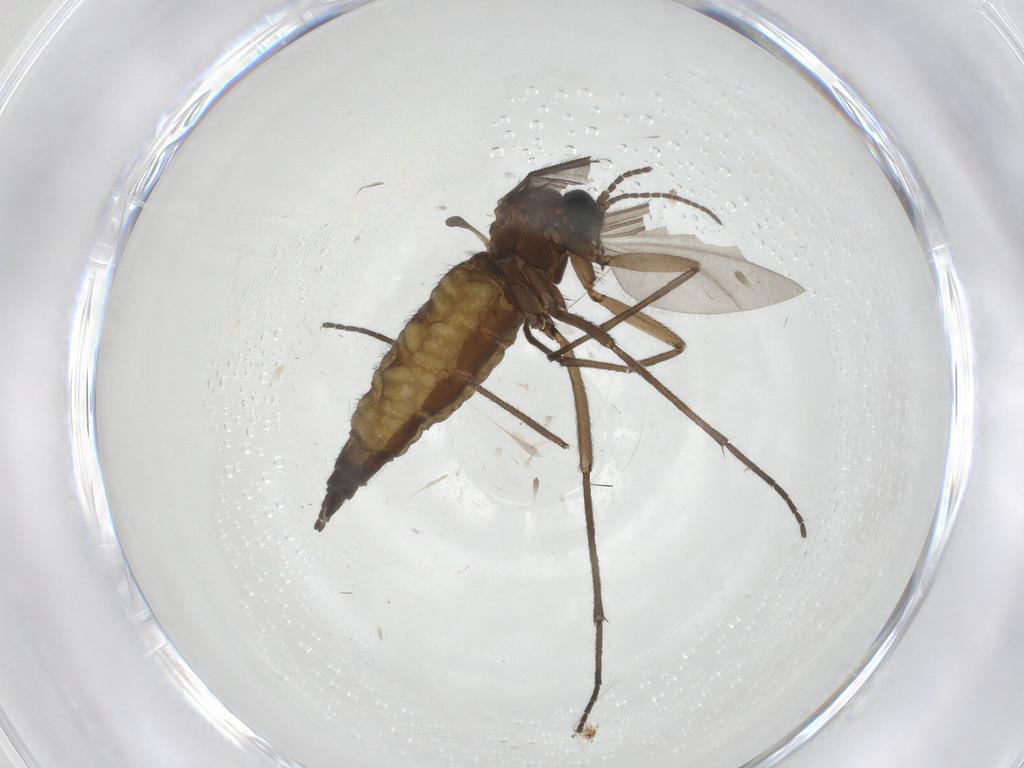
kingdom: Animalia
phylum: Arthropoda
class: Insecta
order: Diptera
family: Sciaridae
